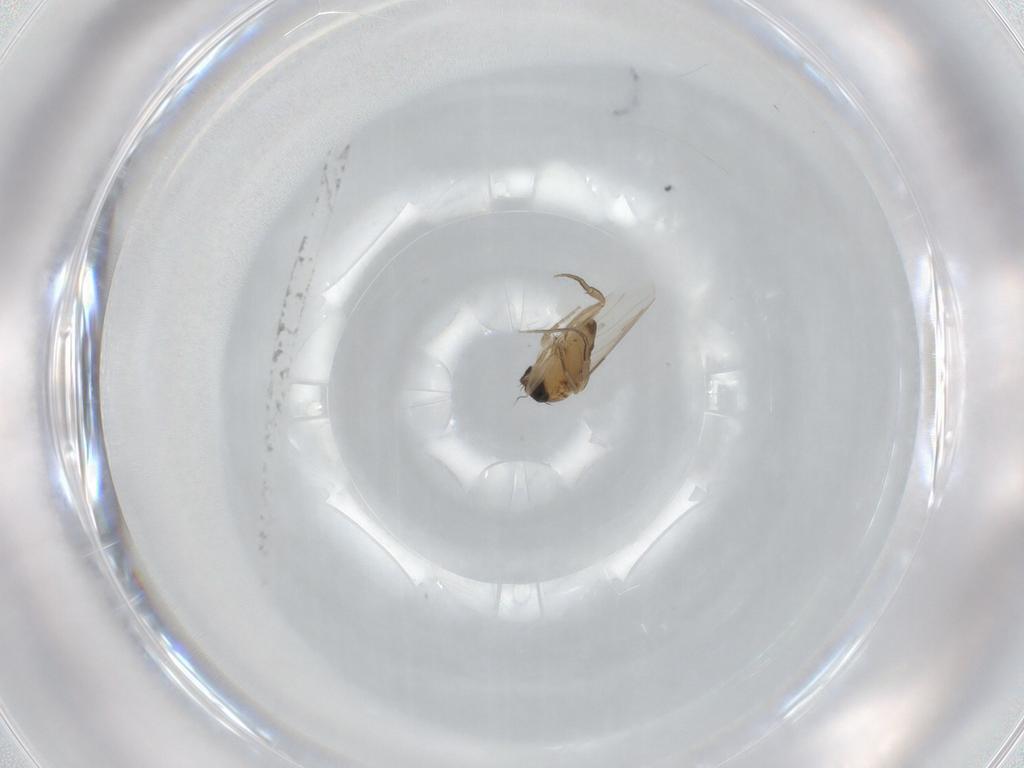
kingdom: Animalia
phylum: Arthropoda
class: Insecta
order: Diptera
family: Phoridae
